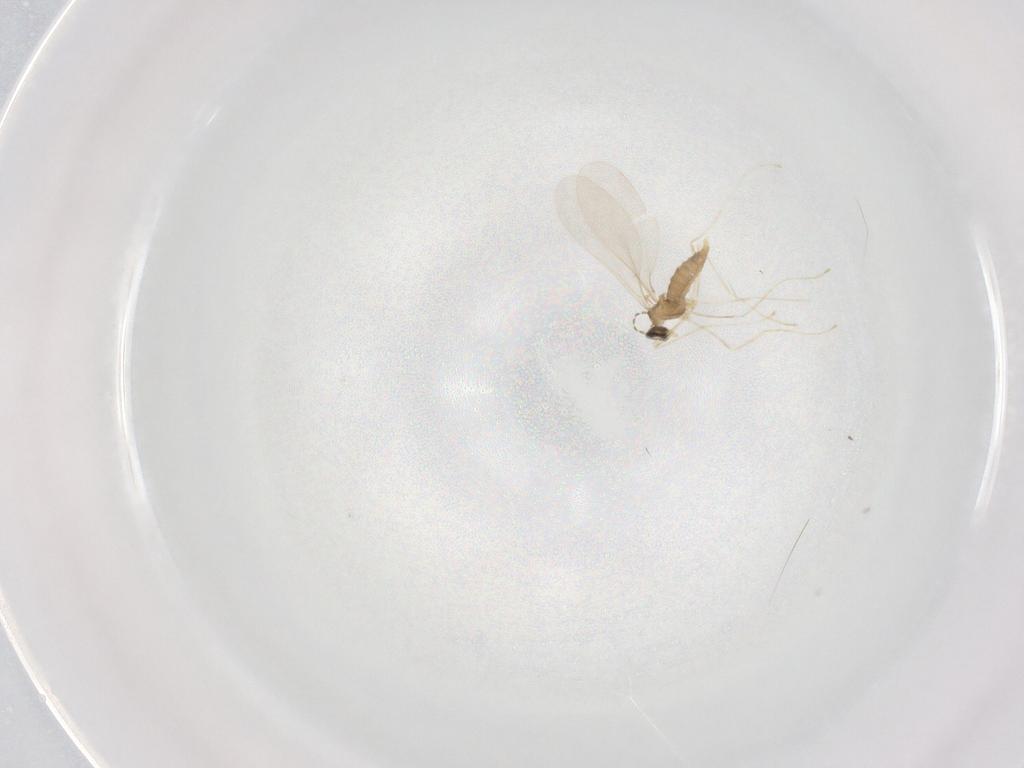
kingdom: Animalia
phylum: Arthropoda
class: Insecta
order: Diptera
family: Cecidomyiidae
